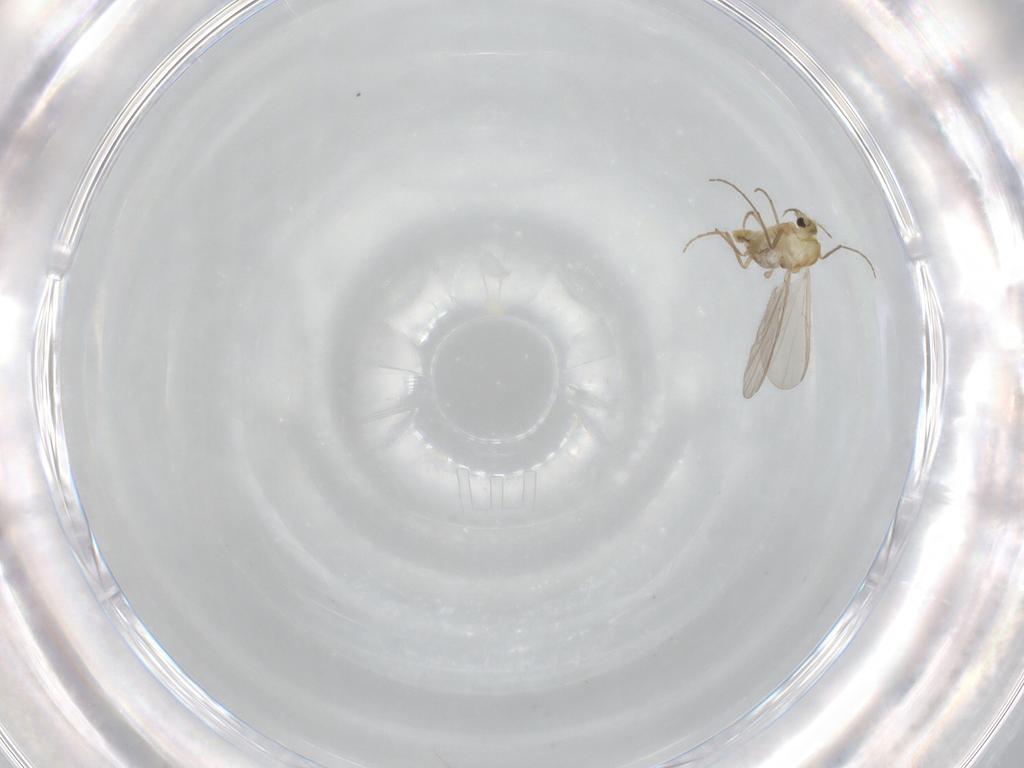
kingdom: Animalia
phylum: Arthropoda
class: Insecta
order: Diptera
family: Chironomidae
